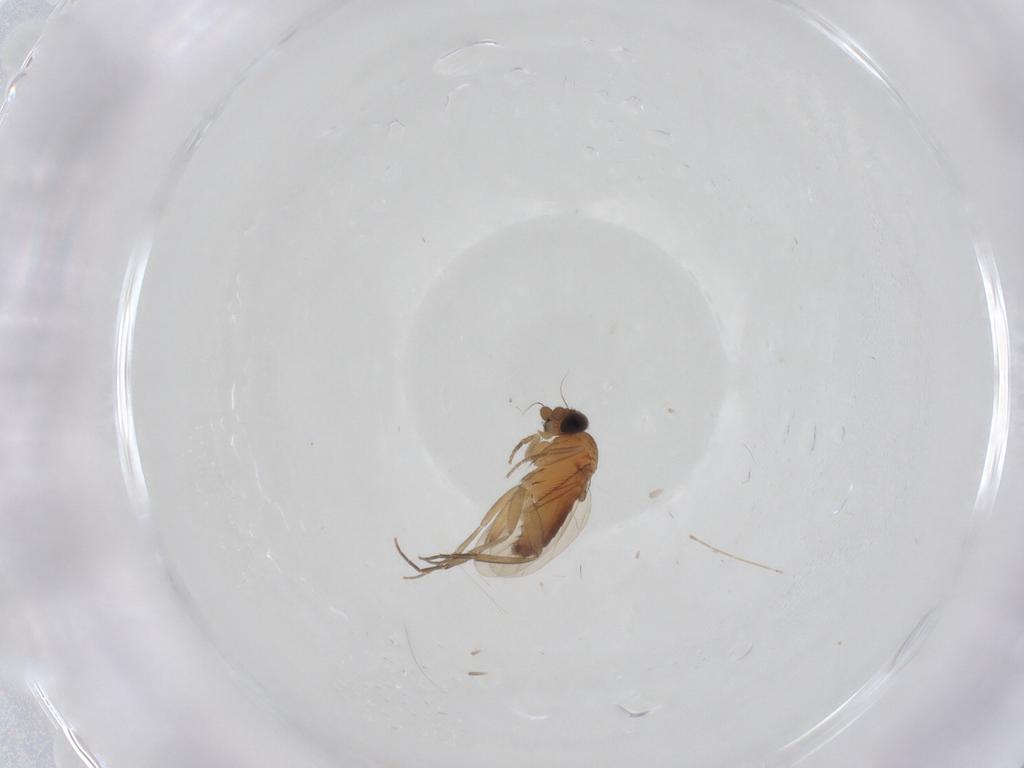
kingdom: Animalia
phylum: Arthropoda
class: Insecta
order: Diptera
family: Phoridae
